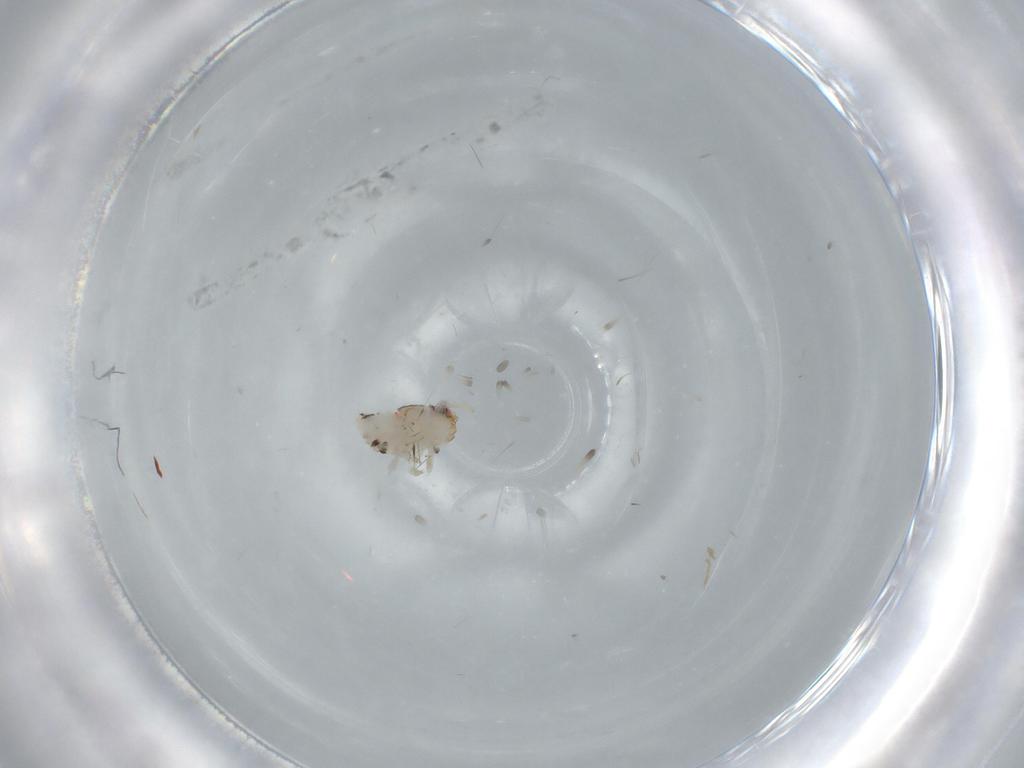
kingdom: Animalia
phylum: Arthropoda
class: Insecta
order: Hemiptera
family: Nogodinidae
